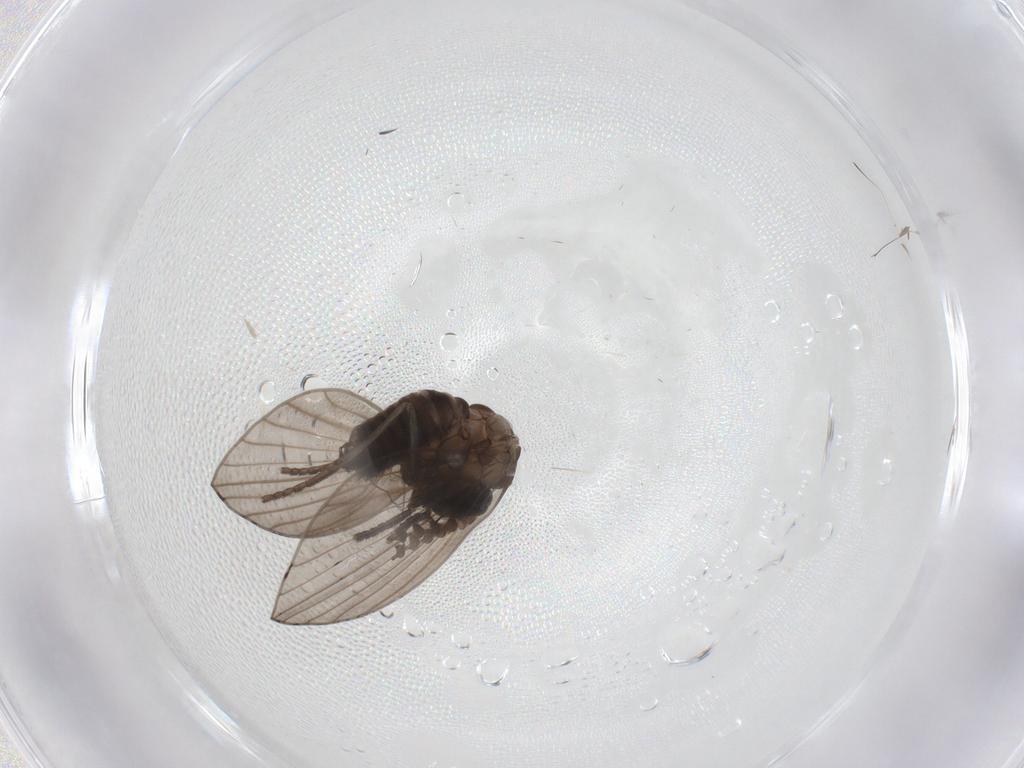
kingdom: Animalia
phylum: Arthropoda
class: Insecta
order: Diptera
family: Psychodidae
